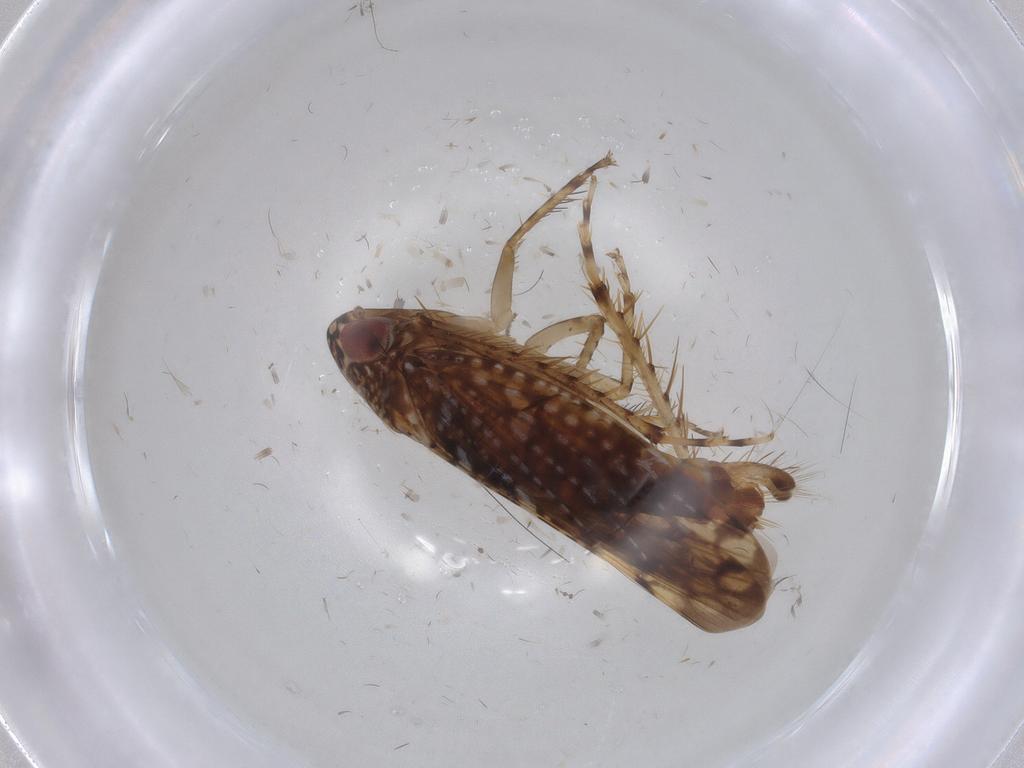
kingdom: Animalia
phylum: Arthropoda
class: Insecta
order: Hemiptera
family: Cicadellidae
